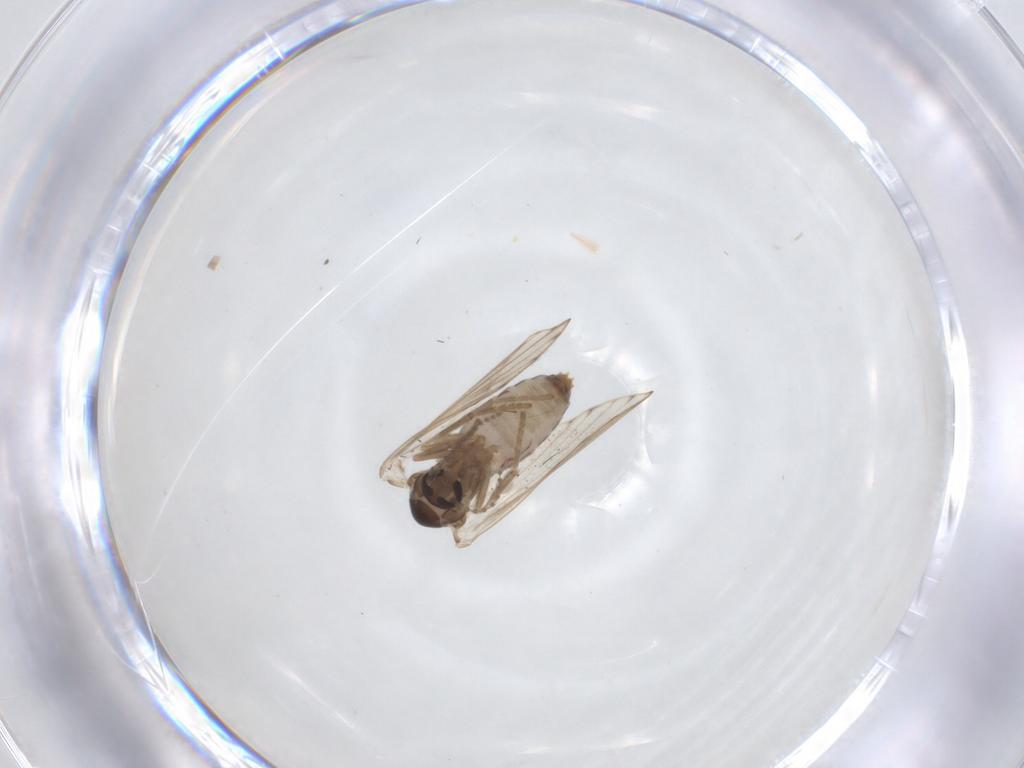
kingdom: Animalia
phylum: Arthropoda
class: Insecta
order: Diptera
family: Psychodidae
